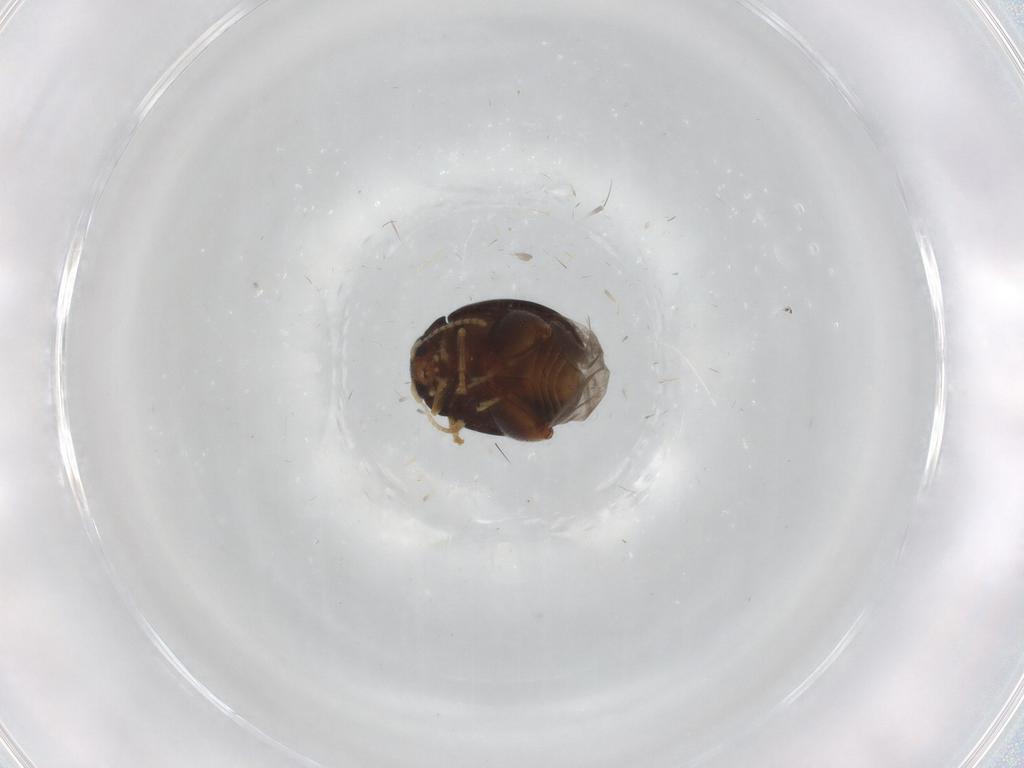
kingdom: Animalia
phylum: Arthropoda
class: Insecta
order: Coleoptera
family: Chrysomelidae
